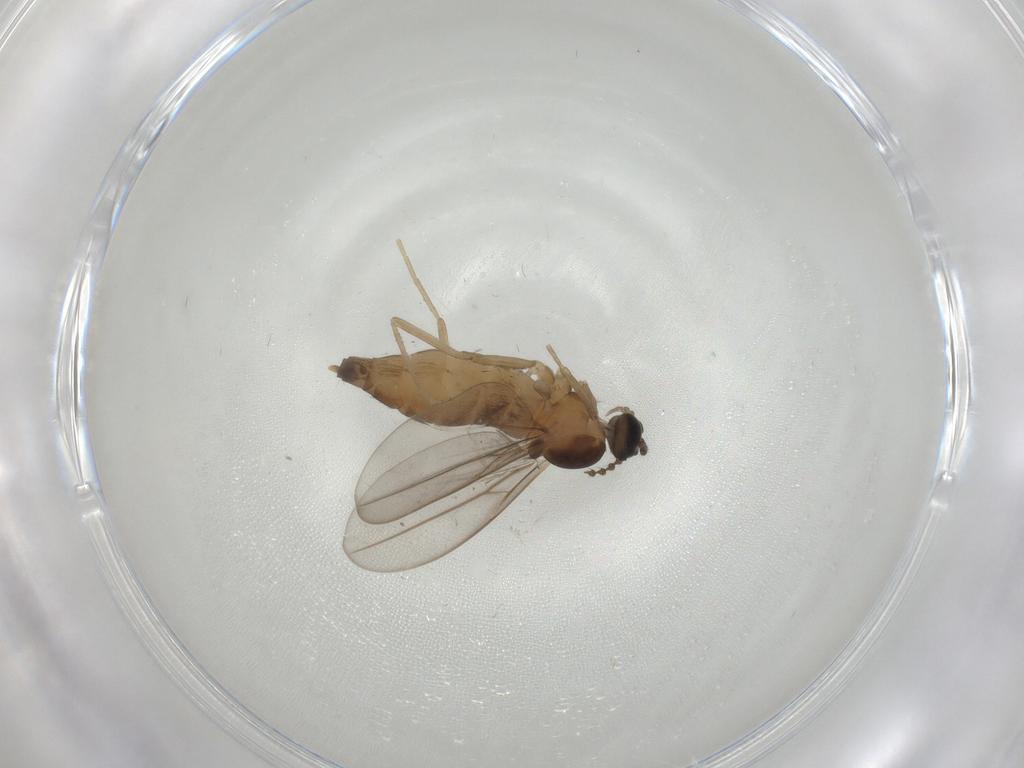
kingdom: Animalia
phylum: Arthropoda
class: Insecta
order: Diptera
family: Cecidomyiidae
